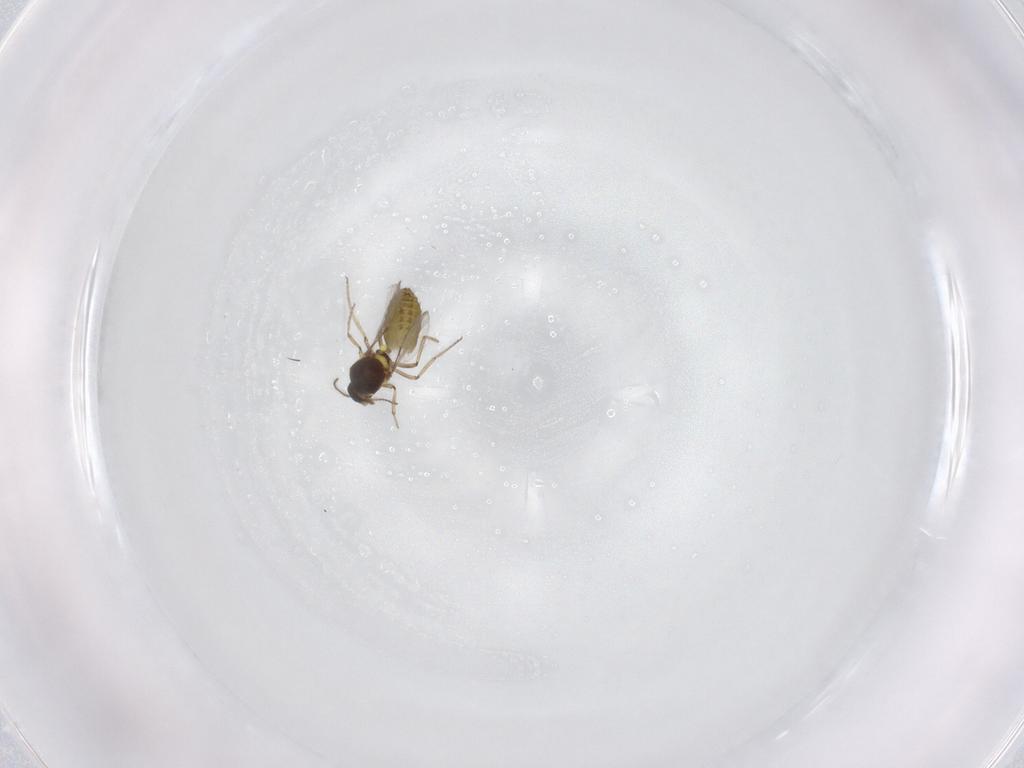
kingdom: Animalia
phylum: Arthropoda
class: Insecta
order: Diptera
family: Ceratopogonidae
